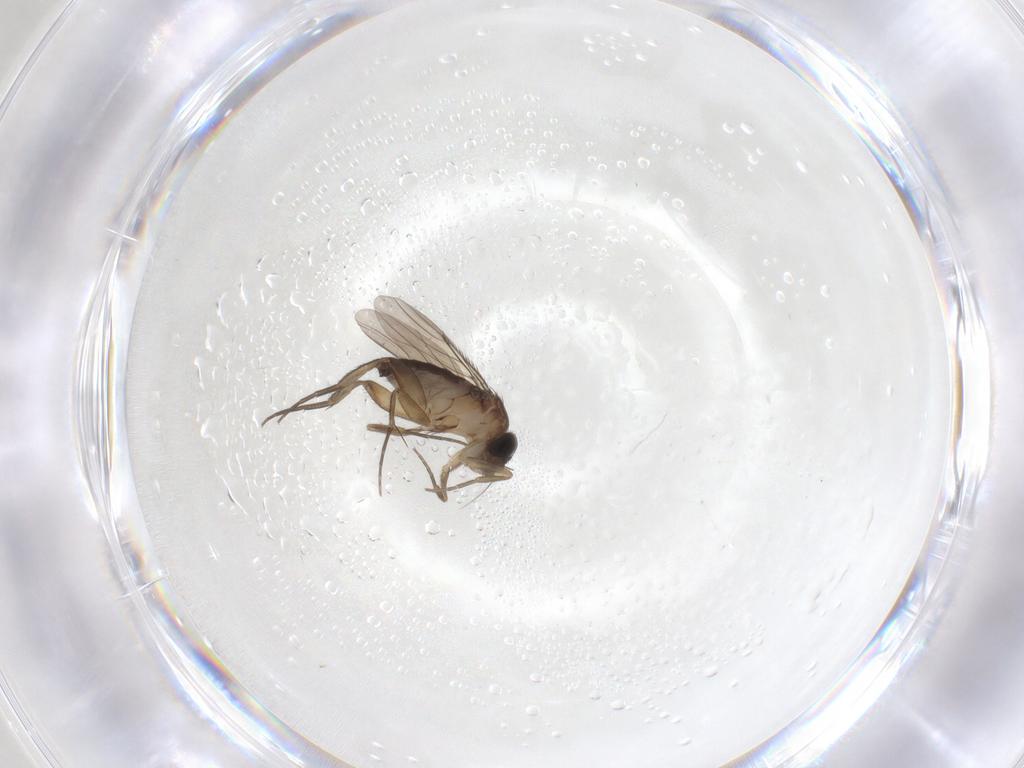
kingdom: Animalia
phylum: Arthropoda
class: Insecta
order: Diptera
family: Phoridae
